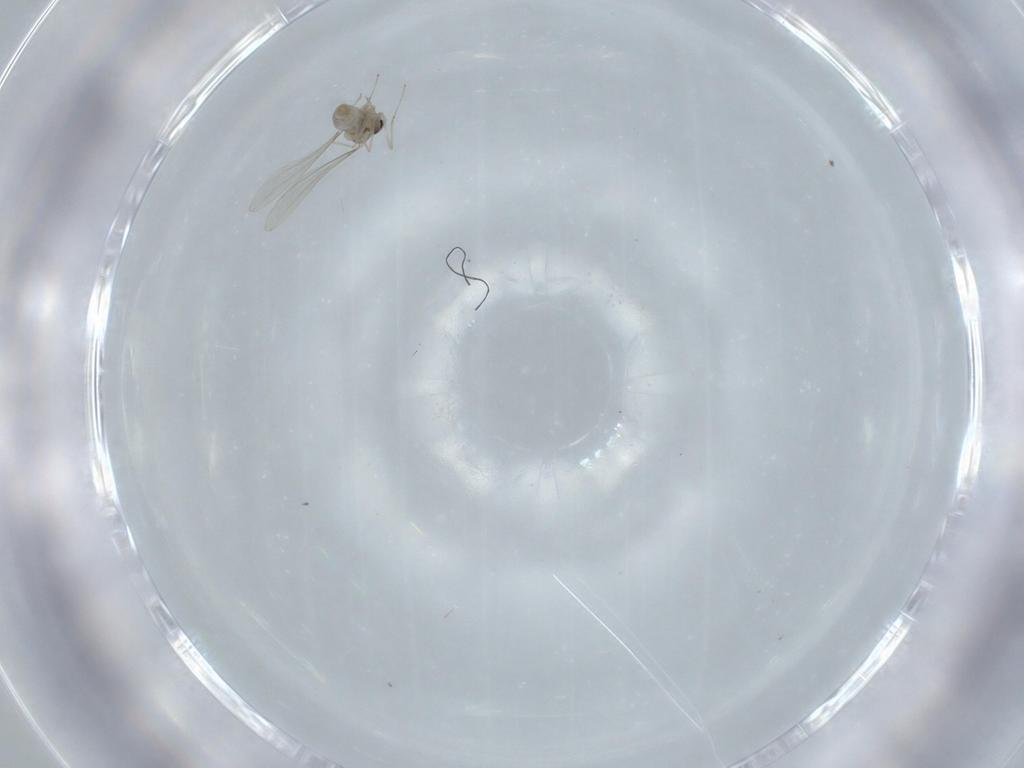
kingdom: Animalia
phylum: Arthropoda
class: Insecta
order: Diptera
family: Cecidomyiidae
